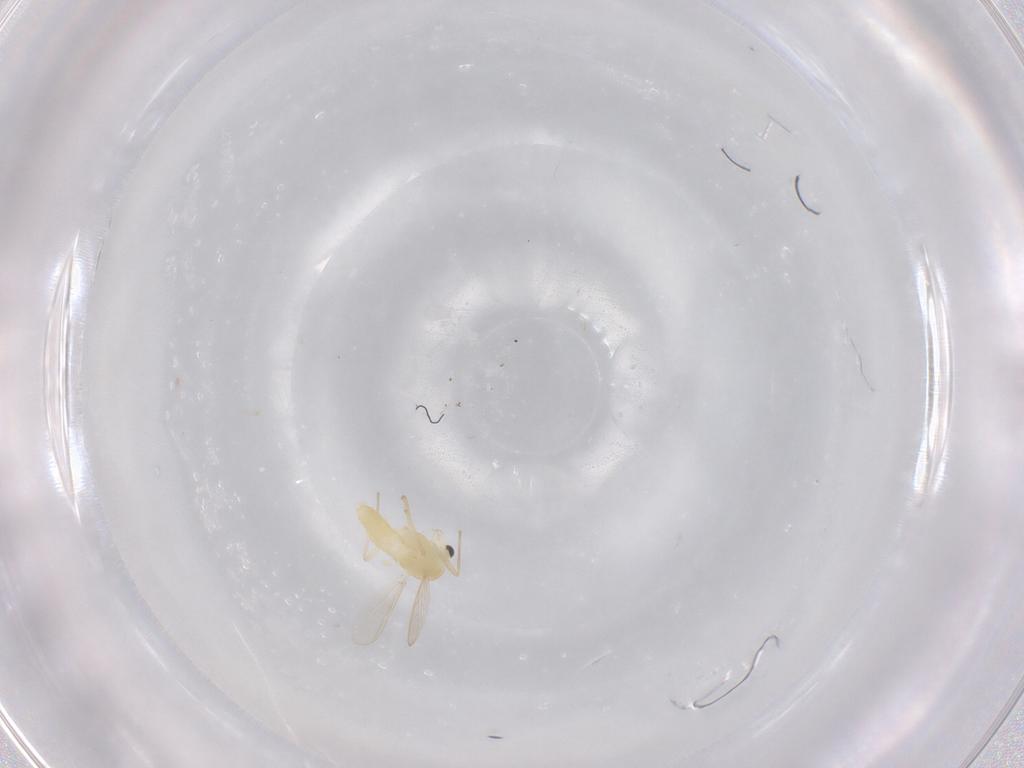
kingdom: Animalia
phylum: Arthropoda
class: Insecta
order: Diptera
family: Chironomidae
